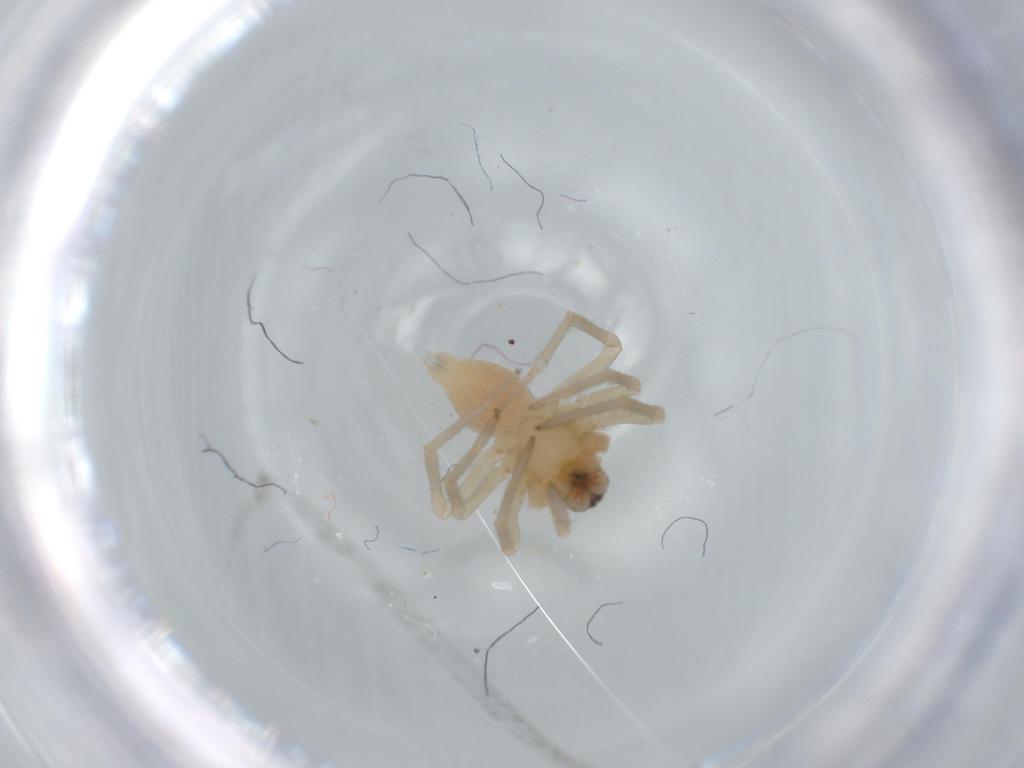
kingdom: Animalia
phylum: Arthropoda
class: Arachnida
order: Araneae
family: Cheiracanthiidae
